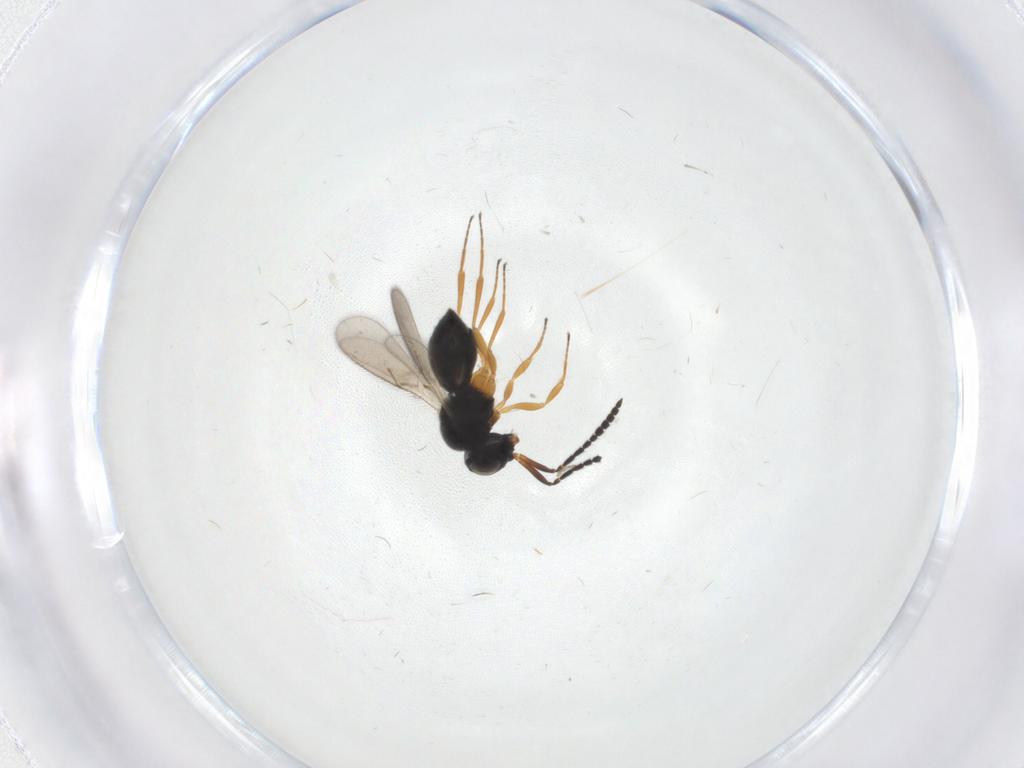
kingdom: Animalia
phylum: Arthropoda
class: Insecta
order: Hymenoptera
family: Scelionidae
